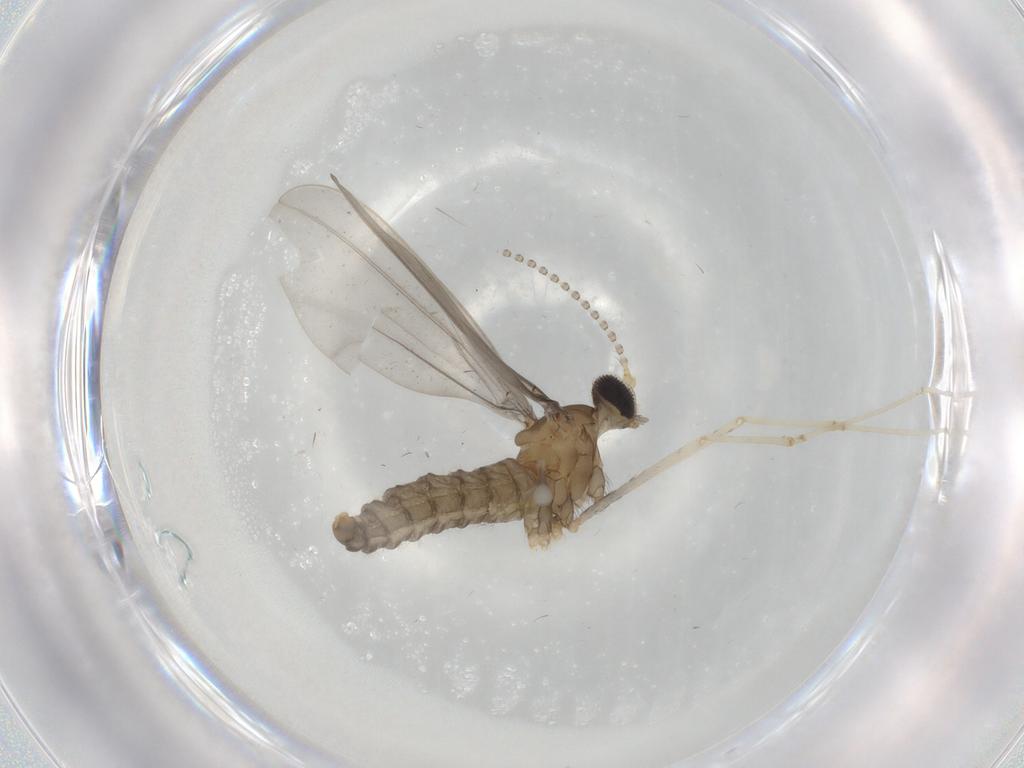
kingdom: Animalia
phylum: Arthropoda
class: Insecta
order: Diptera
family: Phoridae
